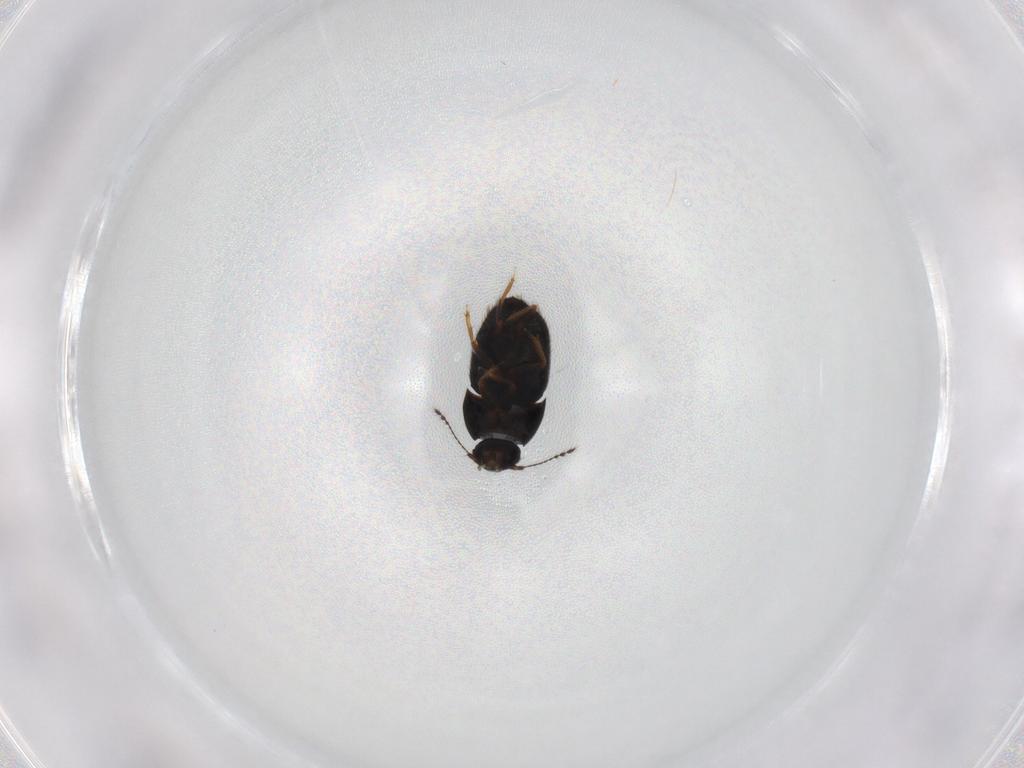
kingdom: Animalia
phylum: Arthropoda
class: Insecta
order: Coleoptera
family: Ptiliidae
